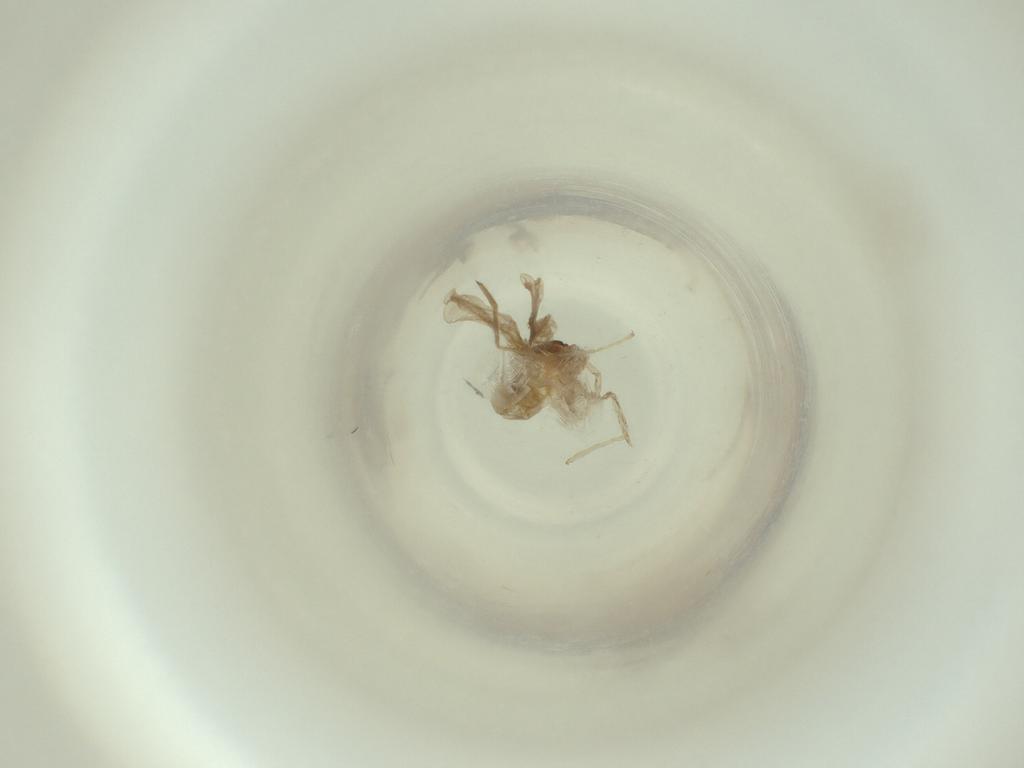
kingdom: Animalia
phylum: Arthropoda
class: Insecta
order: Diptera
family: Cecidomyiidae
